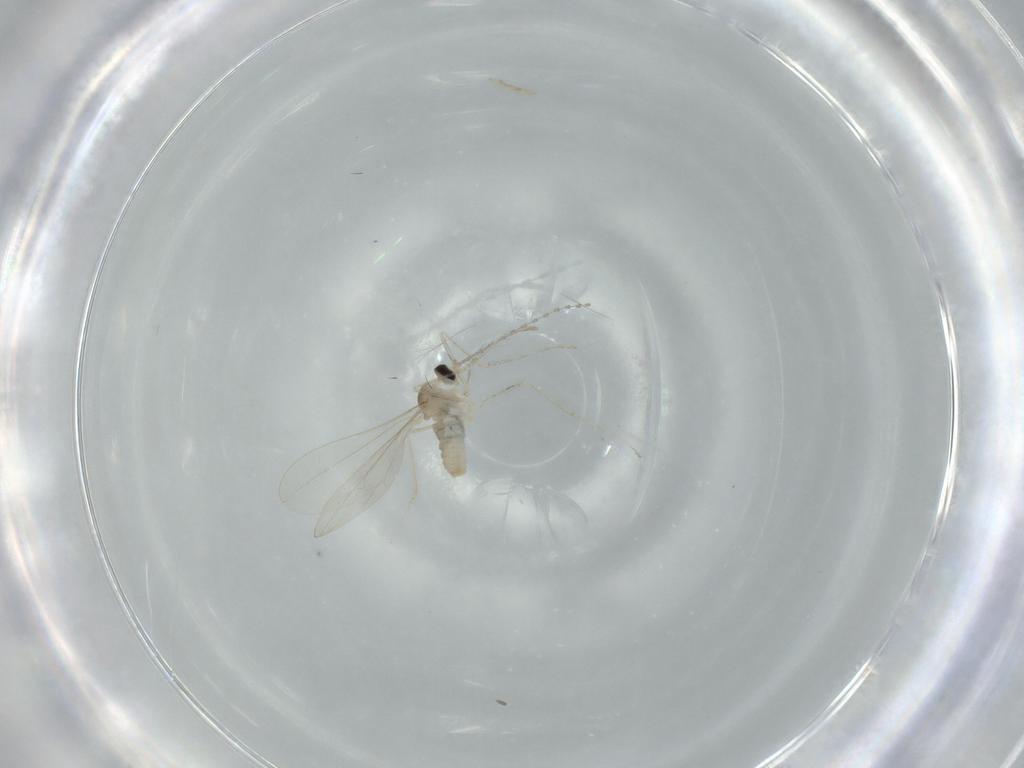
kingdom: Animalia
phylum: Arthropoda
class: Insecta
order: Diptera
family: Cecidomyiidae
